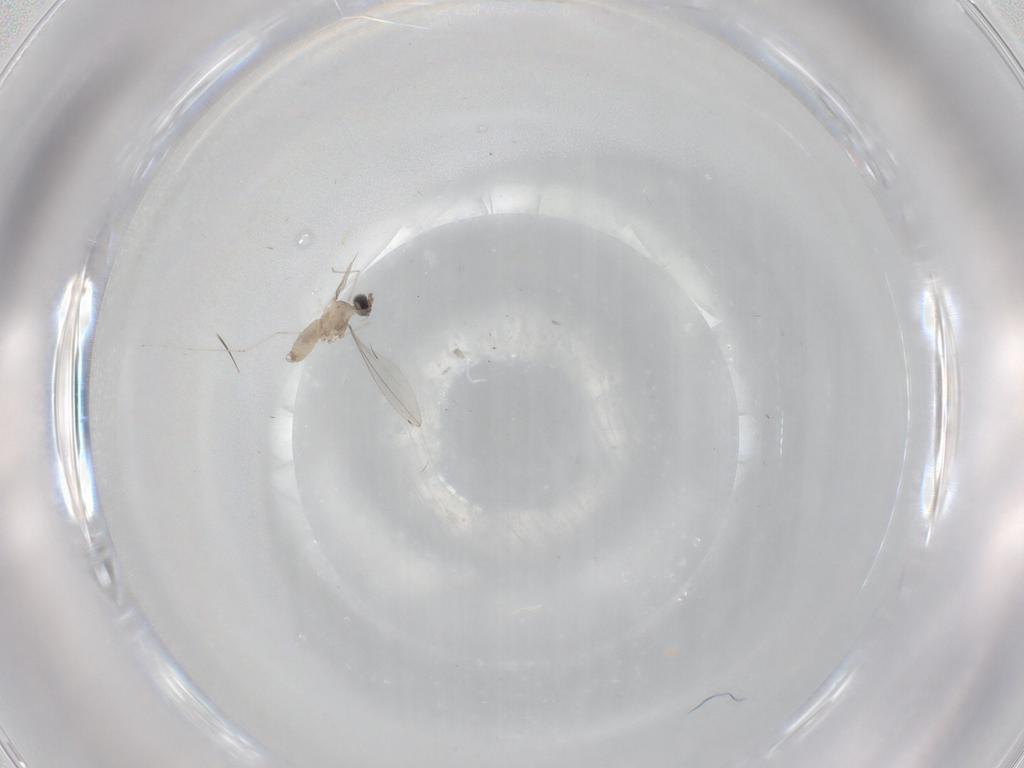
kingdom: Animalia
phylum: Arthropoda
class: Insecta
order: Diptera
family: Cecidomyiidae
